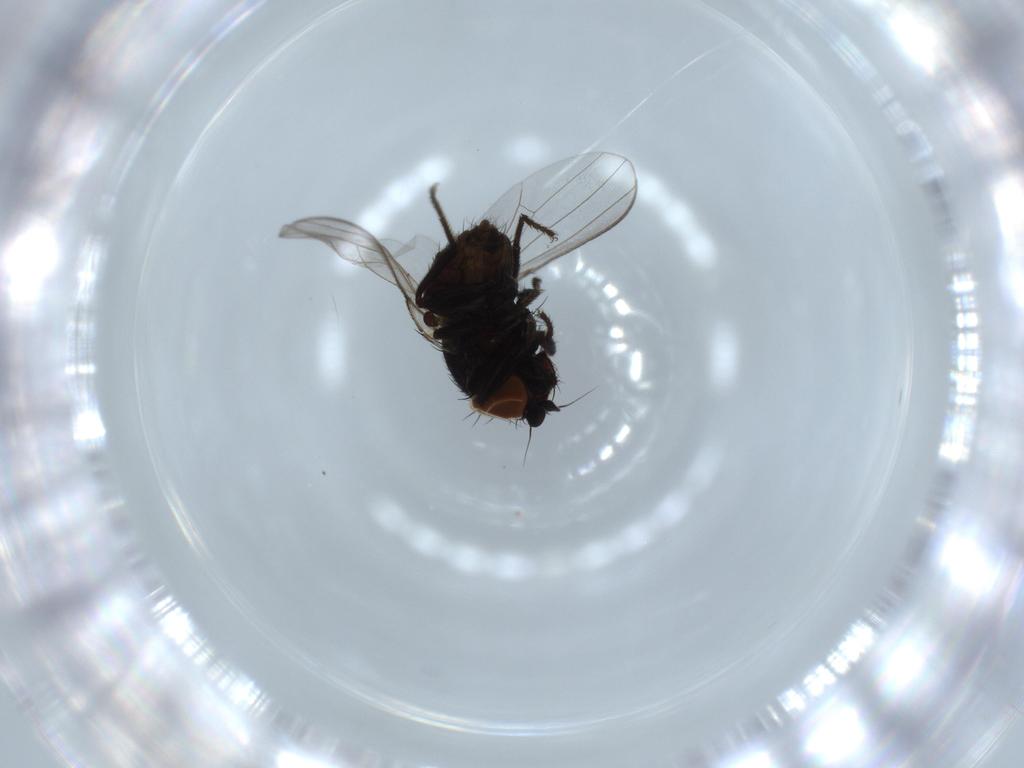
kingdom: Animalia
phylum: Arthropoda
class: Insecta
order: Diptera
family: Milichiidae
